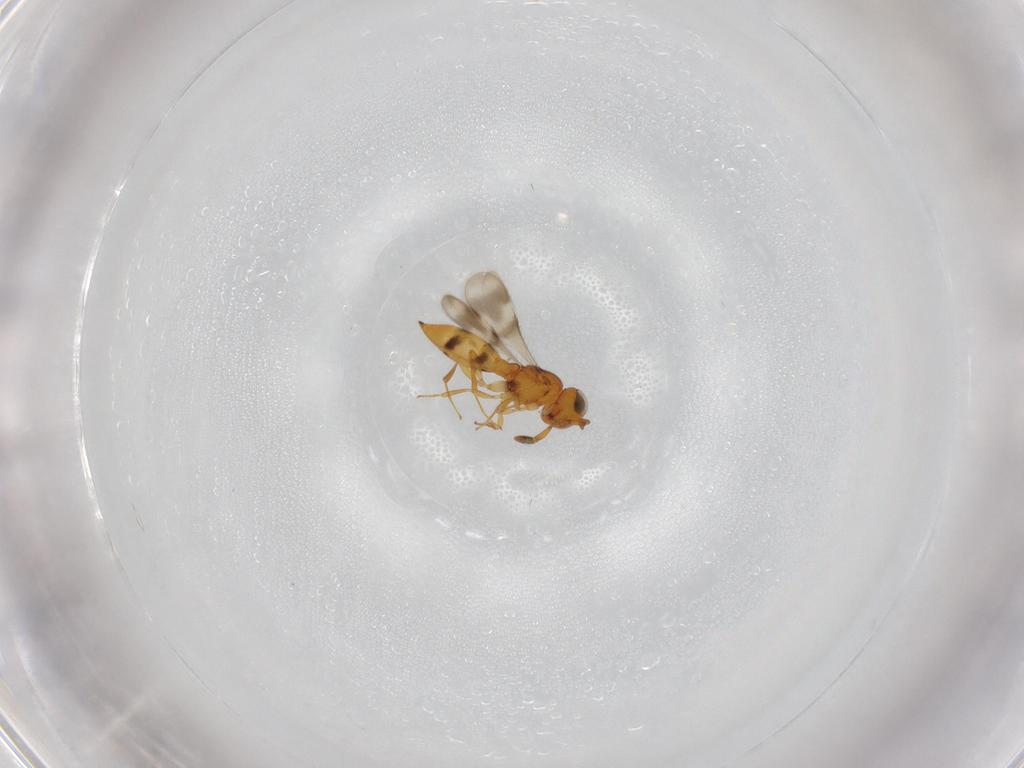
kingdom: Animalia
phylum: Arthropoda
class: Insecta
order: Hymenoptera
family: Scelionidae
